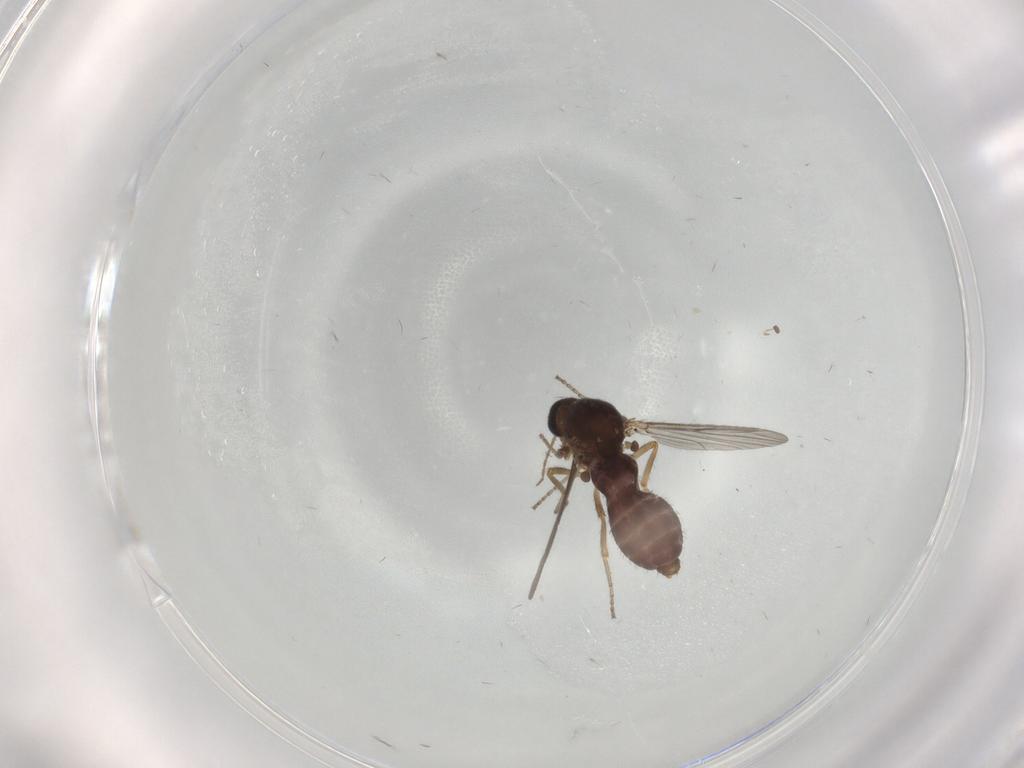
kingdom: Animalia
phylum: Arthropoda
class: Insecta
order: Diptera
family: Ceratopogonidae
